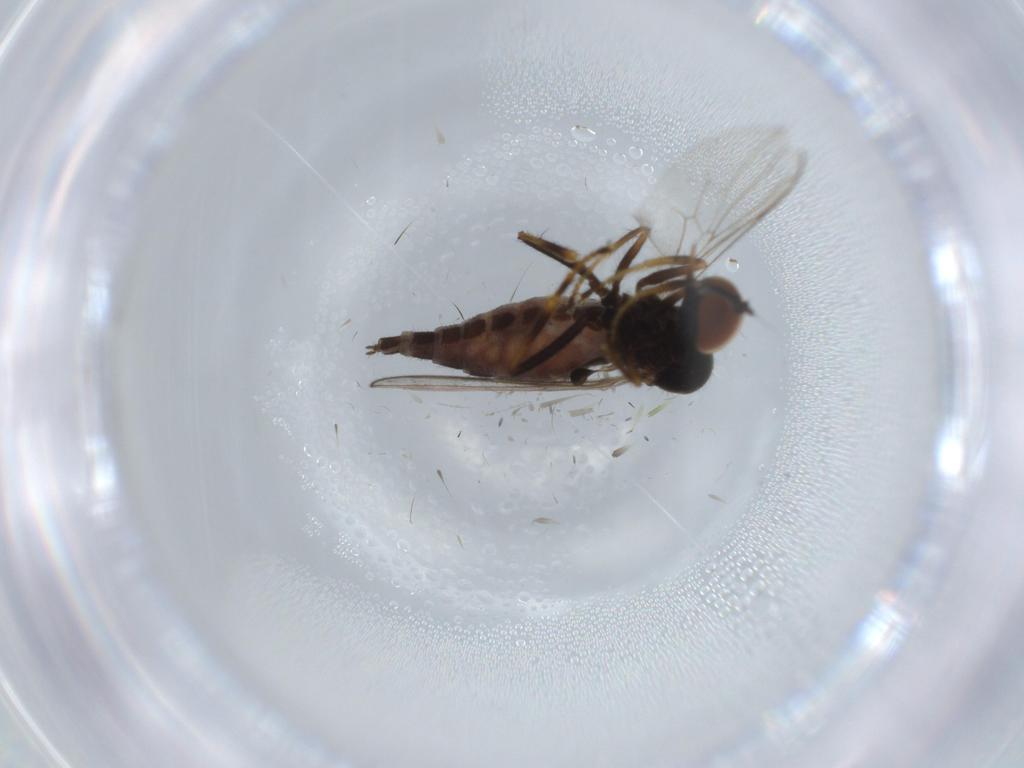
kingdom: Animalia
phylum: Arthropoda
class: Insecta
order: Diptera
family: Hybotidae
